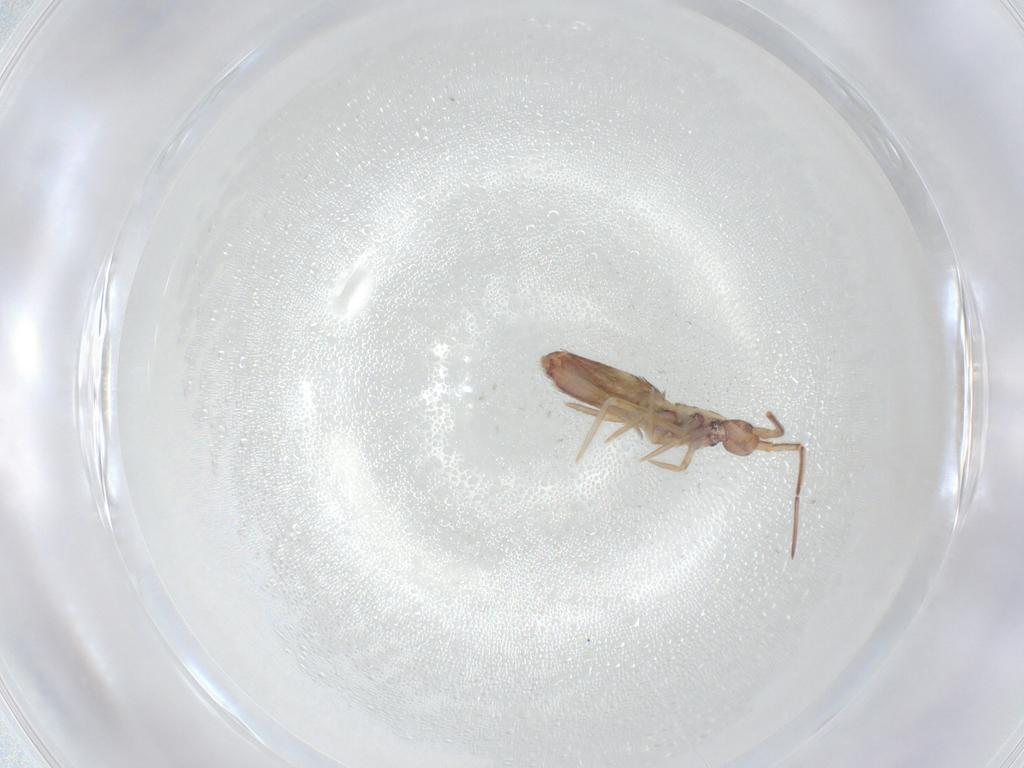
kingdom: Animalia
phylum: Arthropoda
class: Collembola
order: Entomobryomorpha
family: Entomobryidae
